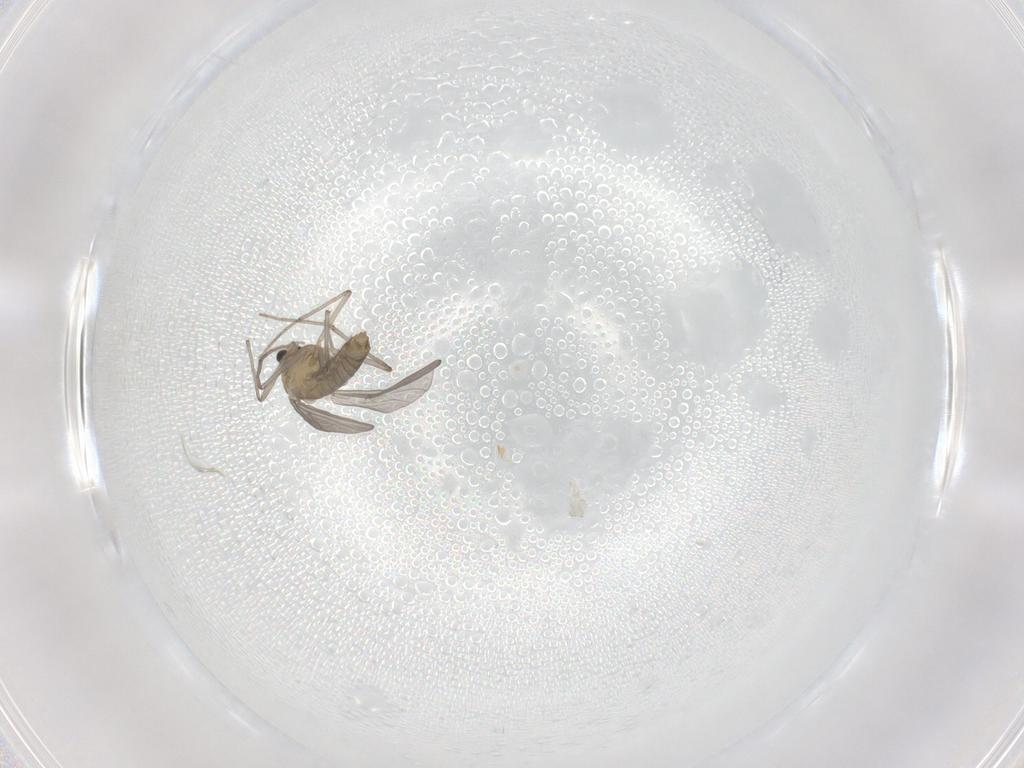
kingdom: Animalia
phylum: Arthropoda
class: Insecta
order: Diptera
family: Chironomidae
